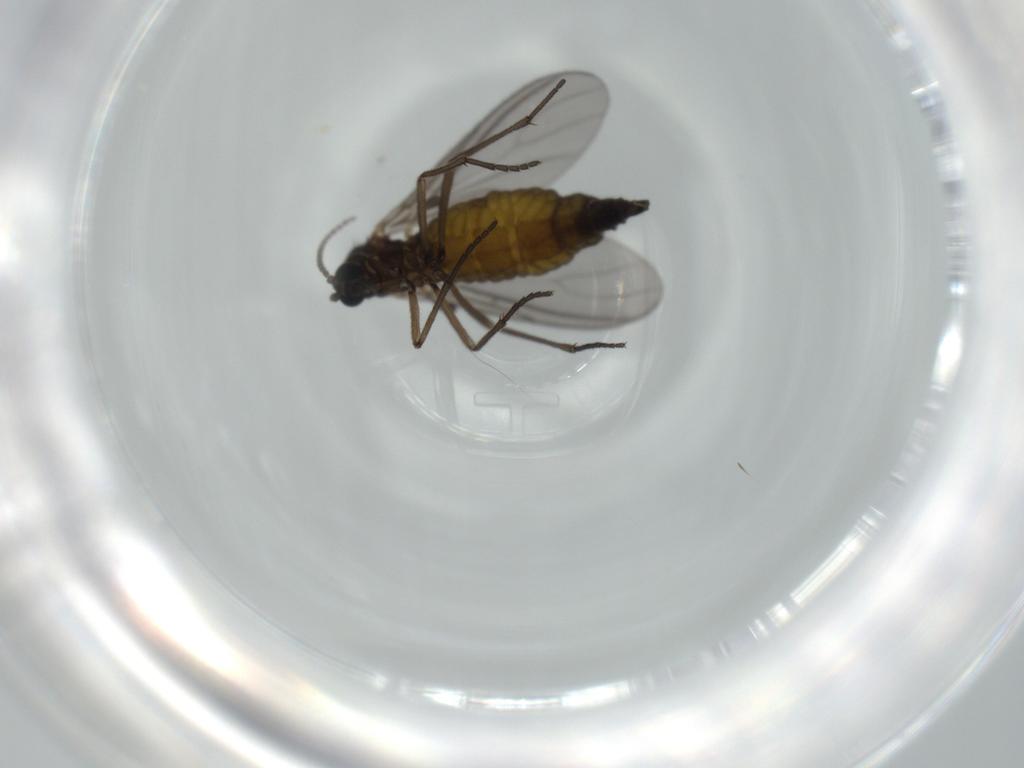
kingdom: Animalia
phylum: Arthropoda
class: Insecta
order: Diptera
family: Sciaridae
